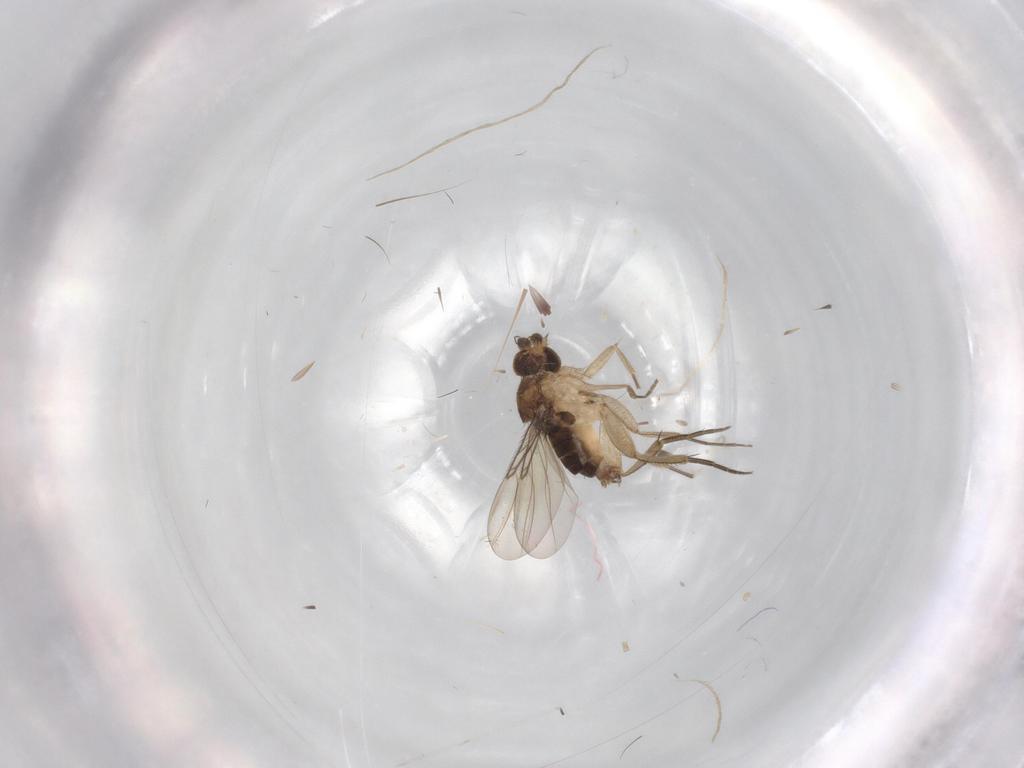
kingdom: Animalia
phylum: Arthropoda
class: Insecta
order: Diptera
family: Phoridae
